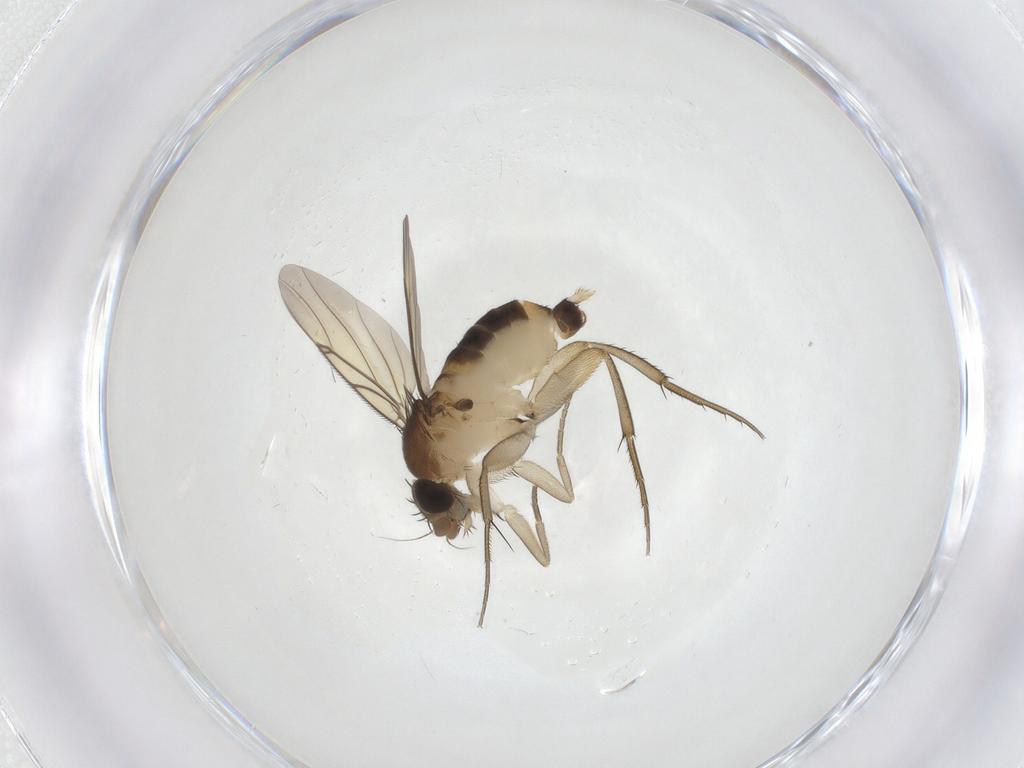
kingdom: Animalia
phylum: Arthropoda
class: Insecta
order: Diptera
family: Phoridae
